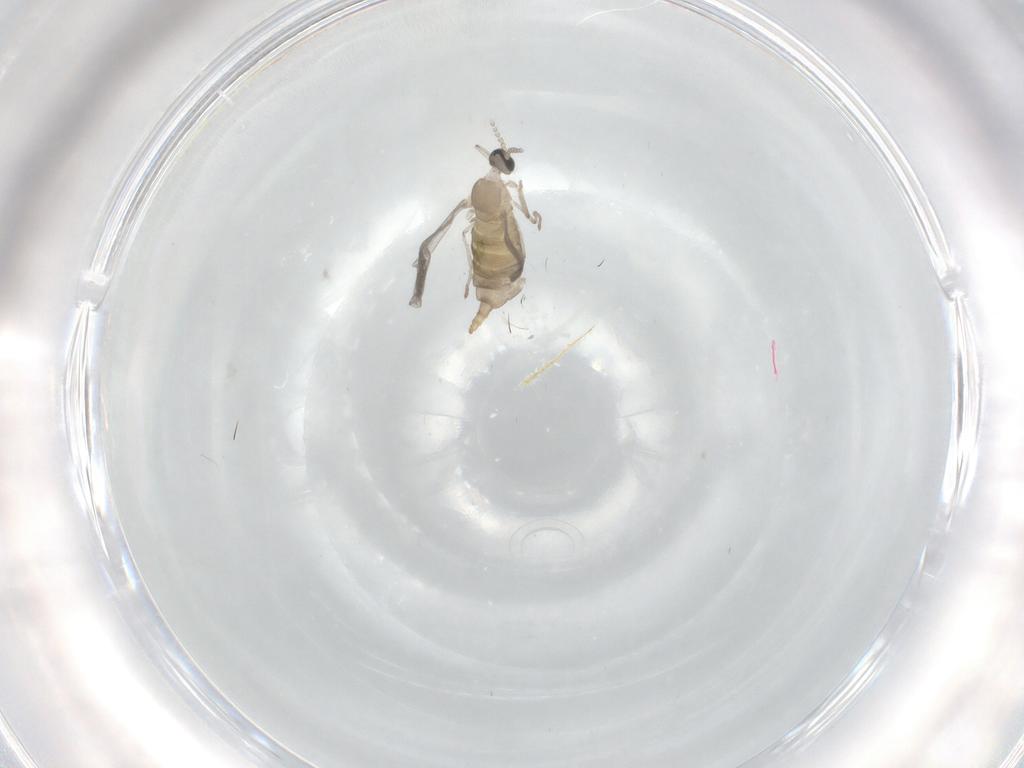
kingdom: Animalia
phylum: Arthropoda
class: Insecta
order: Diptera
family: Cecidomyiidae
